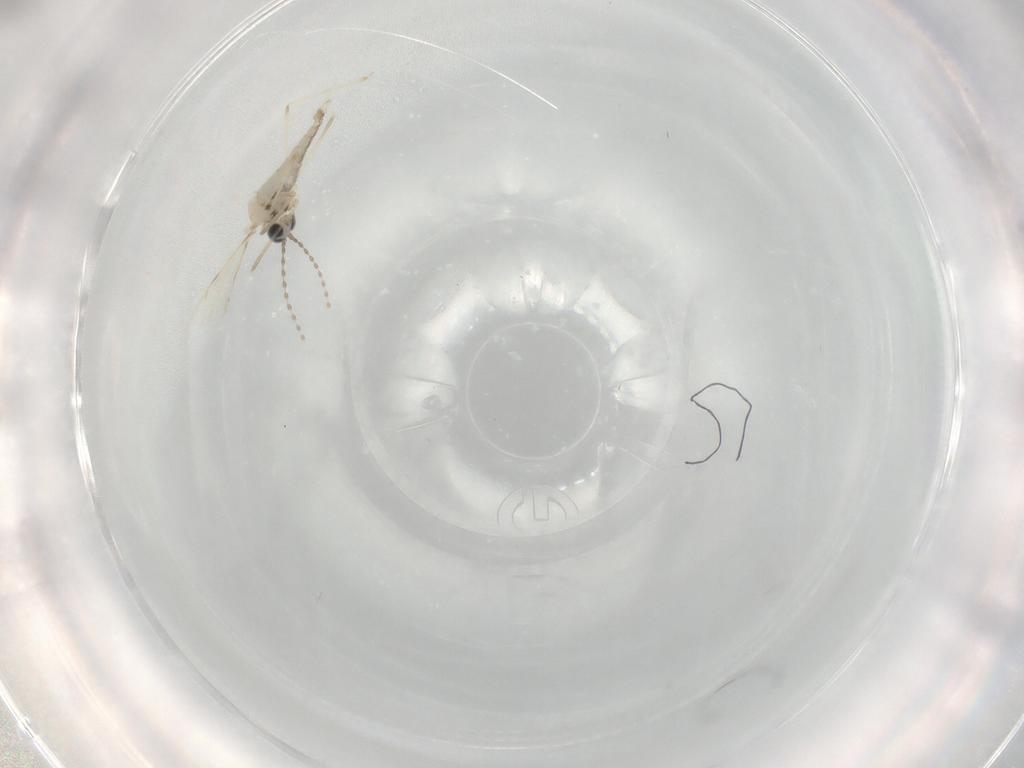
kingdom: Animalia
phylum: Arthropoda
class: Insecta
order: Diptera
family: Cecidomyiidae
